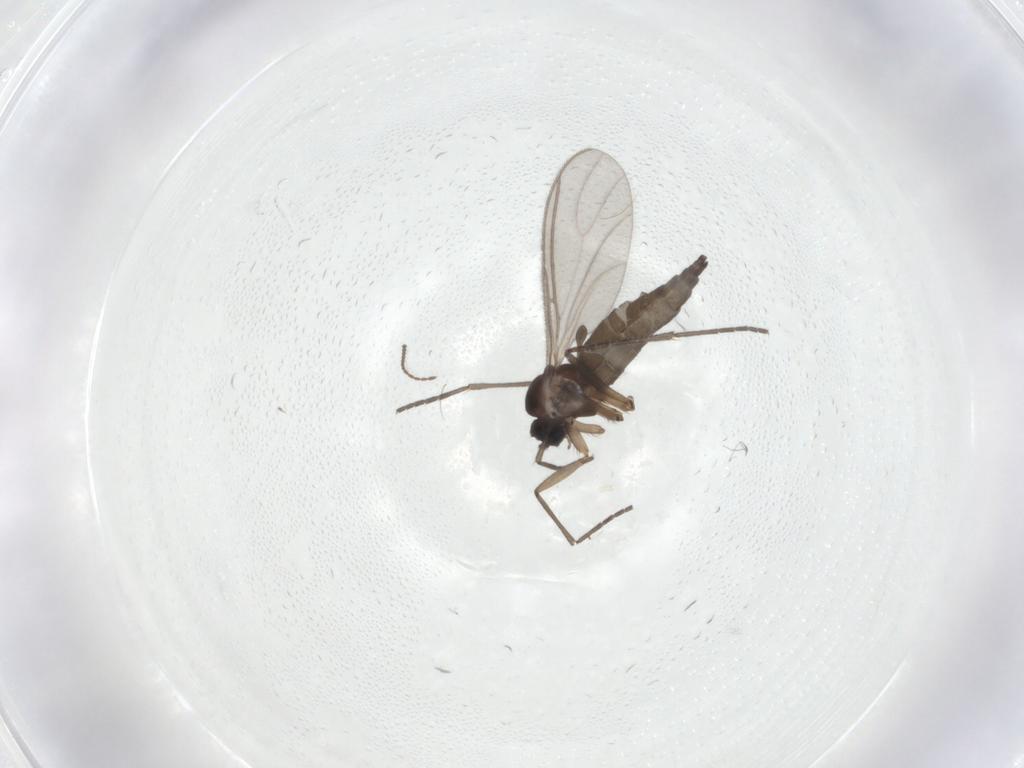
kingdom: Animalia
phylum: Arthropoda
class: Insecta
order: Diptera
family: Ceratopogonidae
